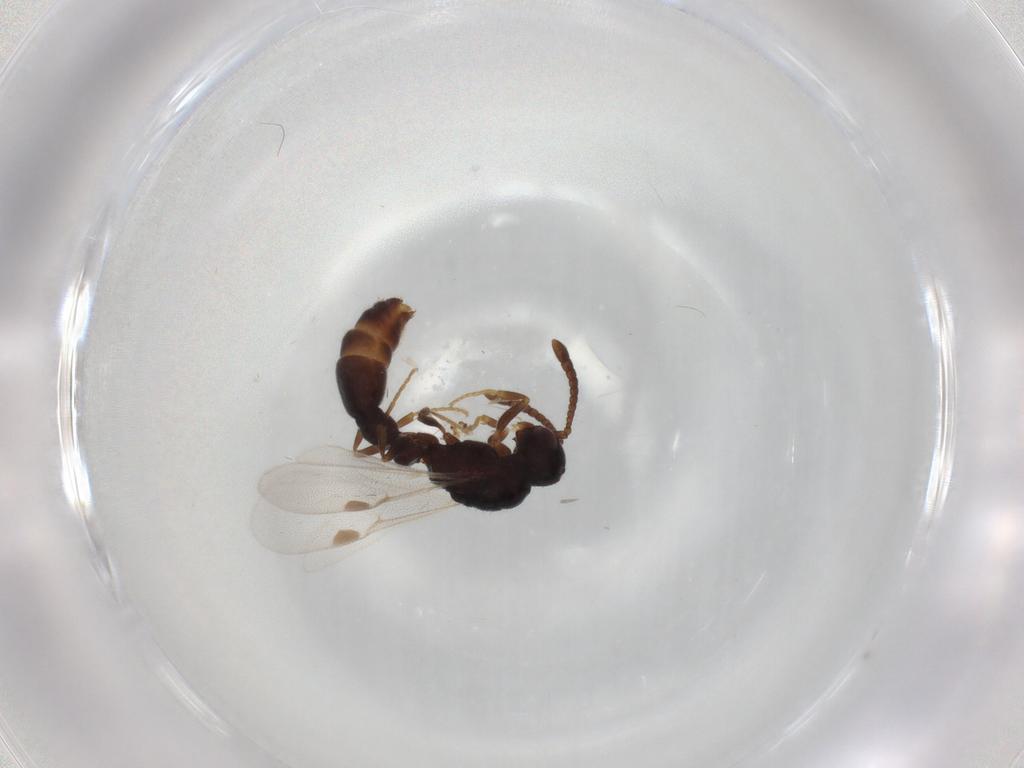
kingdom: Animalia
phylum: Arthropoda
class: Insecta
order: Hymenoptera
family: Formicidae
